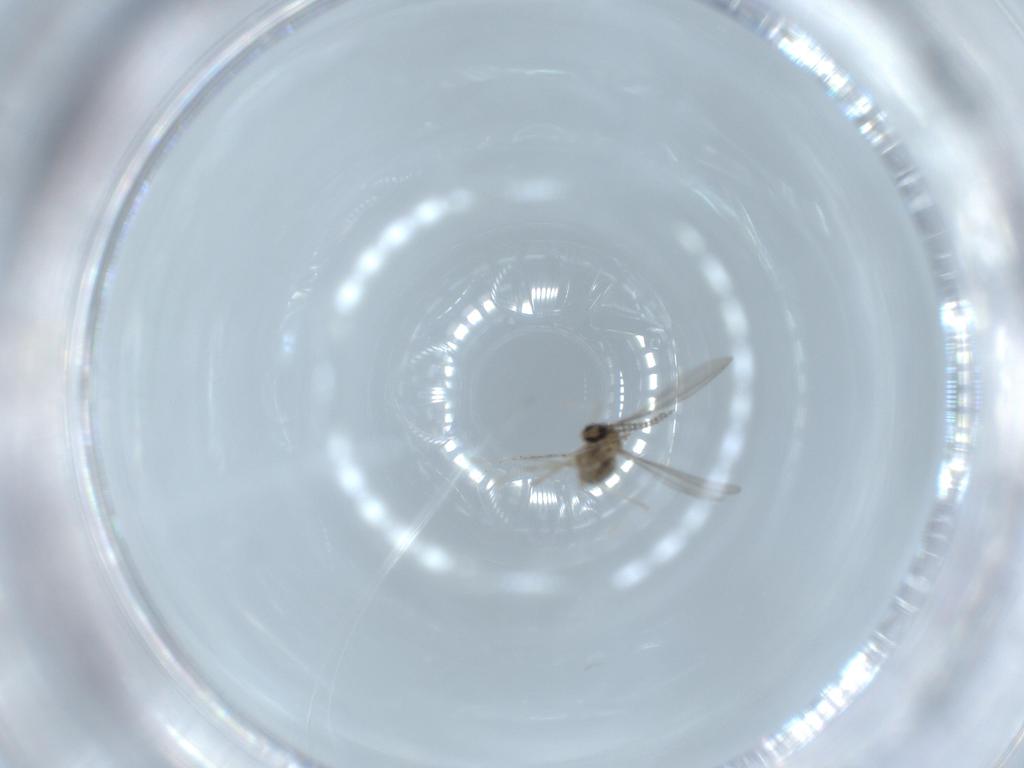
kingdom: Animalia
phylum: Arthropoda
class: Insecta
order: Diptera
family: Cecidomyiidae
